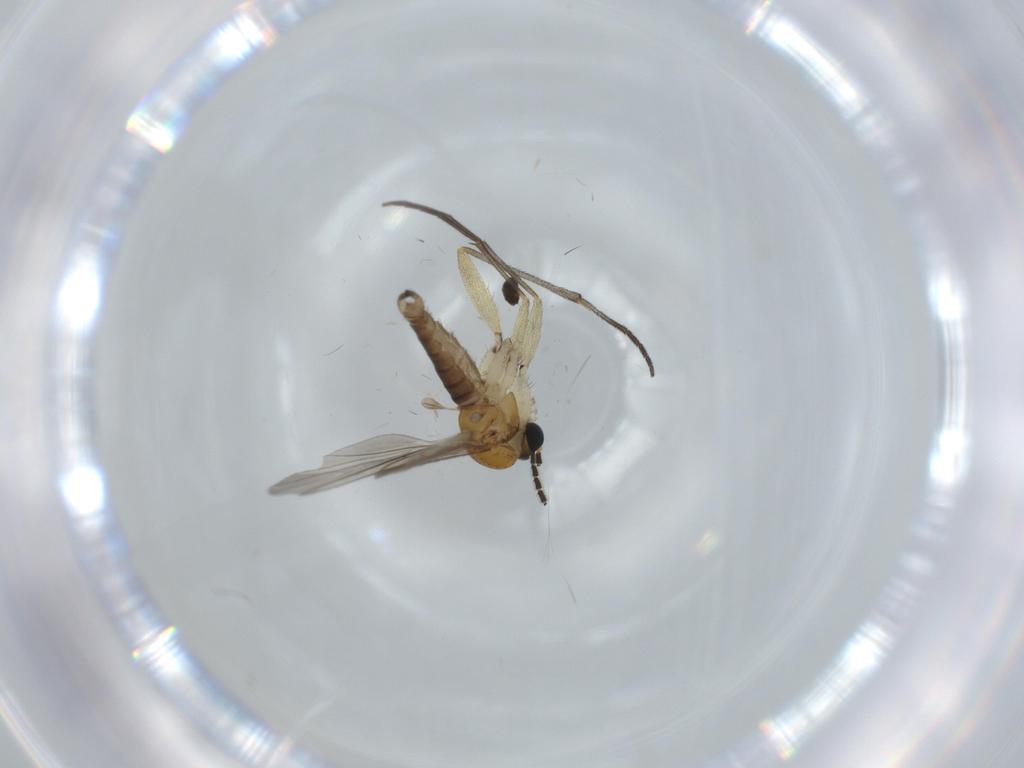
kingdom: Animalia
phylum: Arthropoda
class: Insecta
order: Diptera
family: Sciaridae
